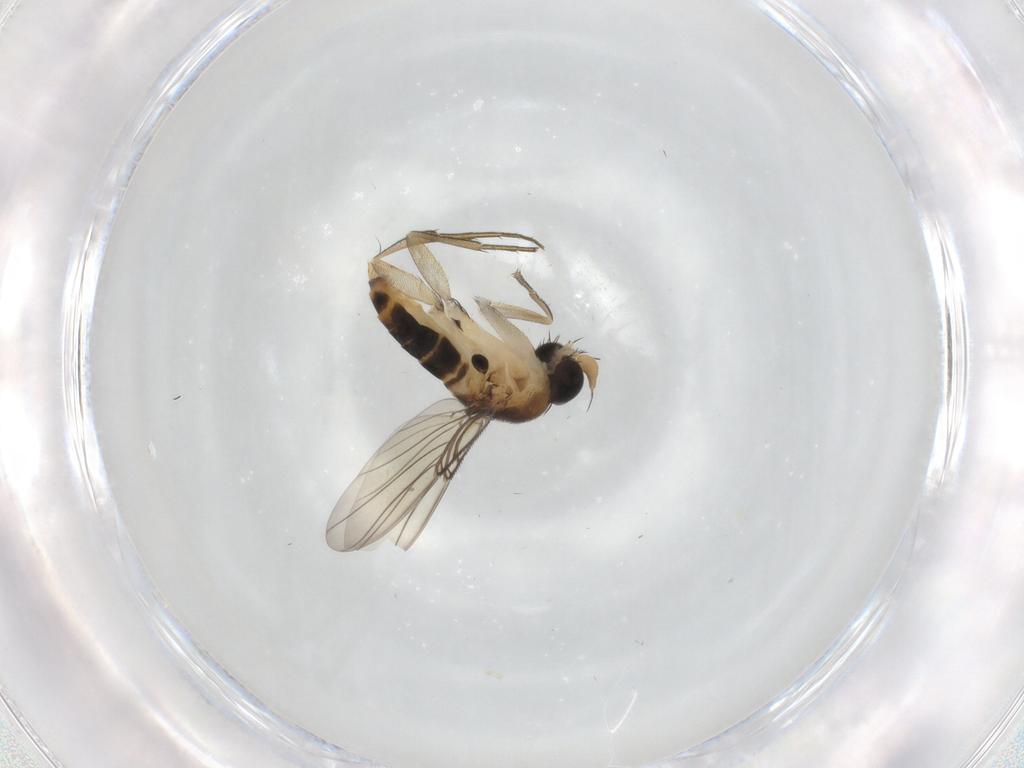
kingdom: Animalia
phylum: Arthropoda
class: Insecta
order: Diptera
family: Phoridae
